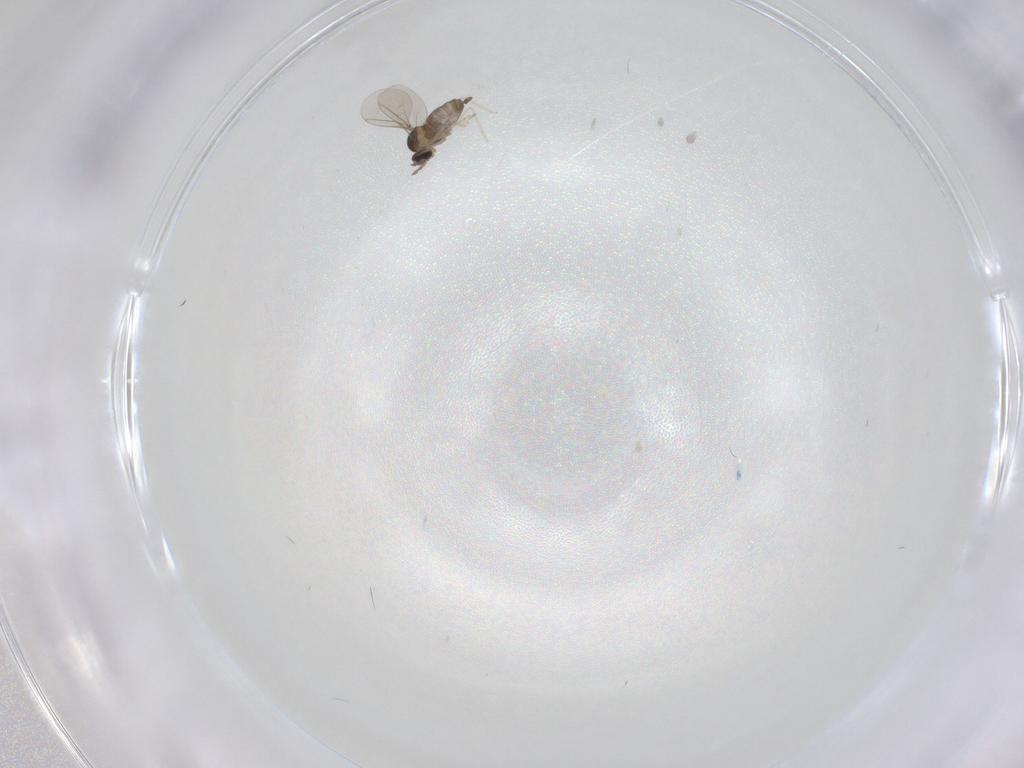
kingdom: Animalia
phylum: Arthropoda
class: Insecta
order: Diptera
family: Cecidomyiidae
